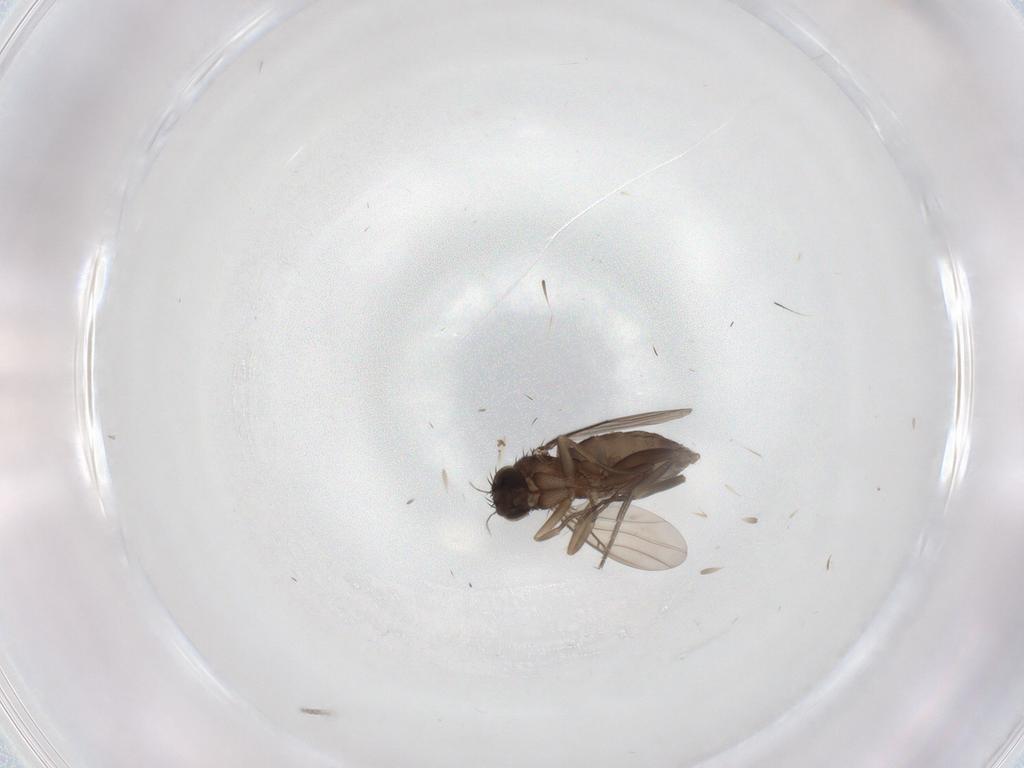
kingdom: Animalia
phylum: Arthropoda
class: Insecta
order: Diptera
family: Phoridae
